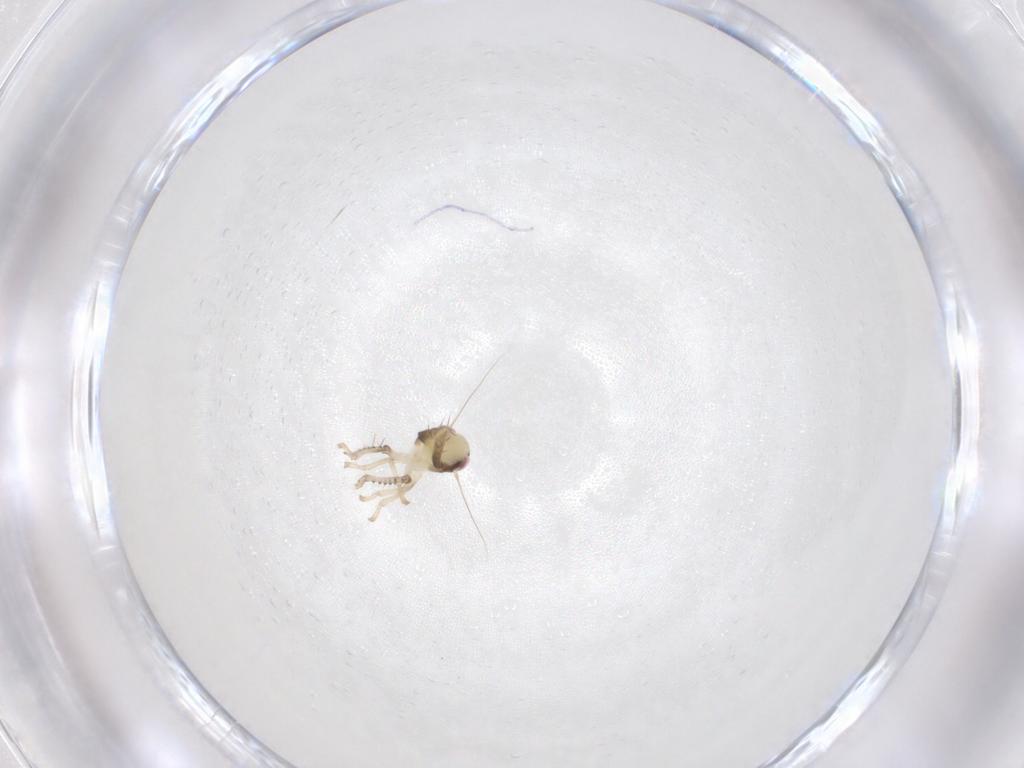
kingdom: Animalia
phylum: Arthropoda
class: Insecta
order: Hemiptera
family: Cicadellidae
